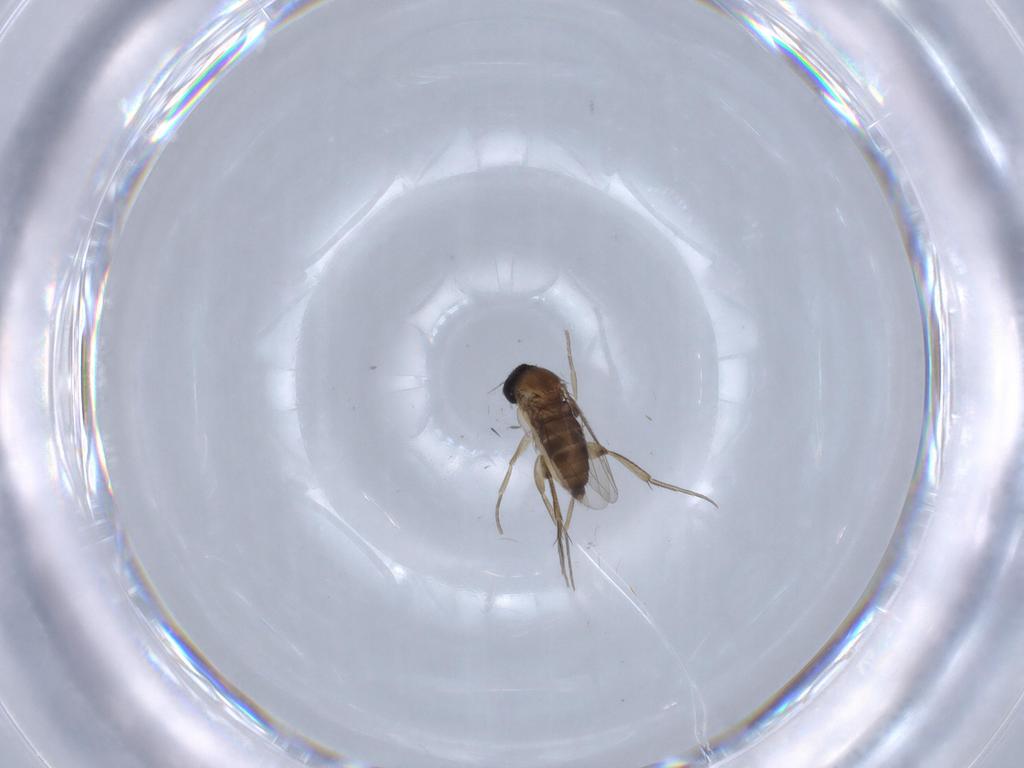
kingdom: Animalia
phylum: Arthropoda
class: Insecta
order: Diptera
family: Phoridae
